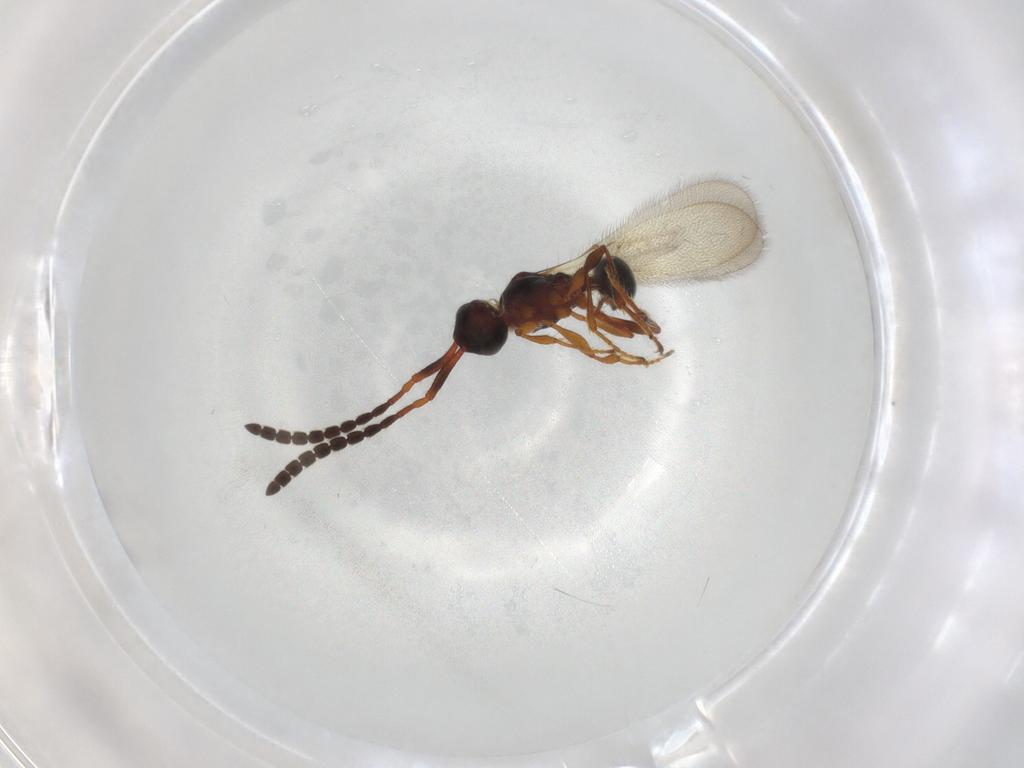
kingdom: Animalia
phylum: Arthropoda
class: Insecta
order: Hymenoptera
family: Diapriidae
